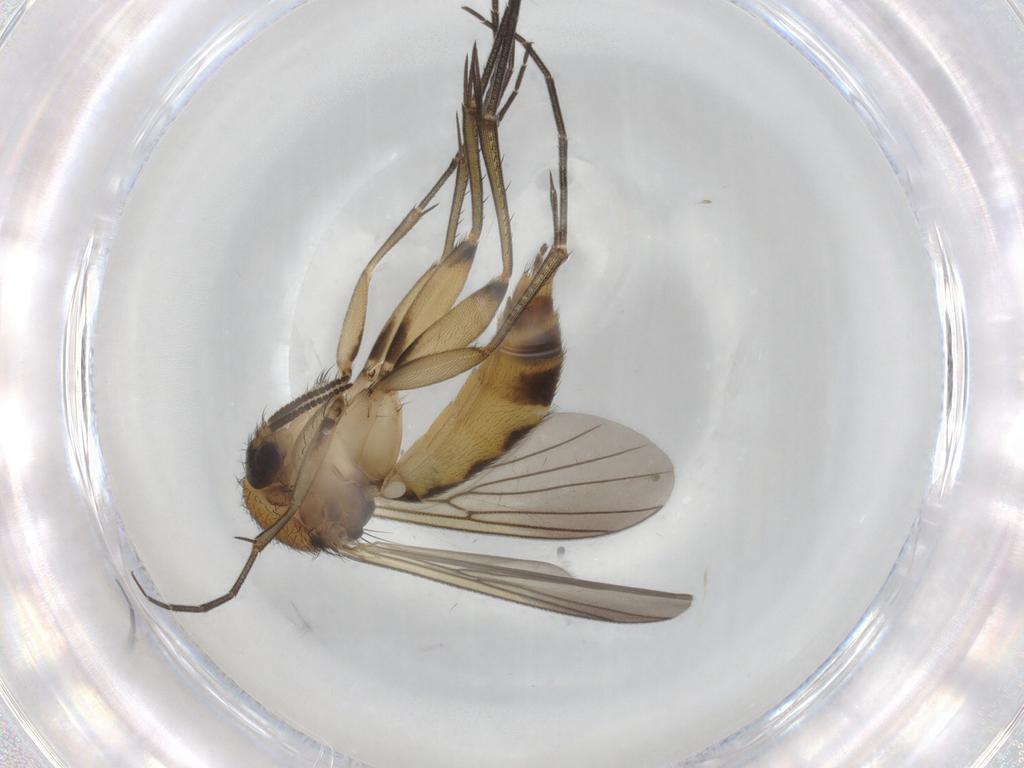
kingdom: Animalia
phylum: Arthropoda
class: Insecta
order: Diptera
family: Mycetophilidae
